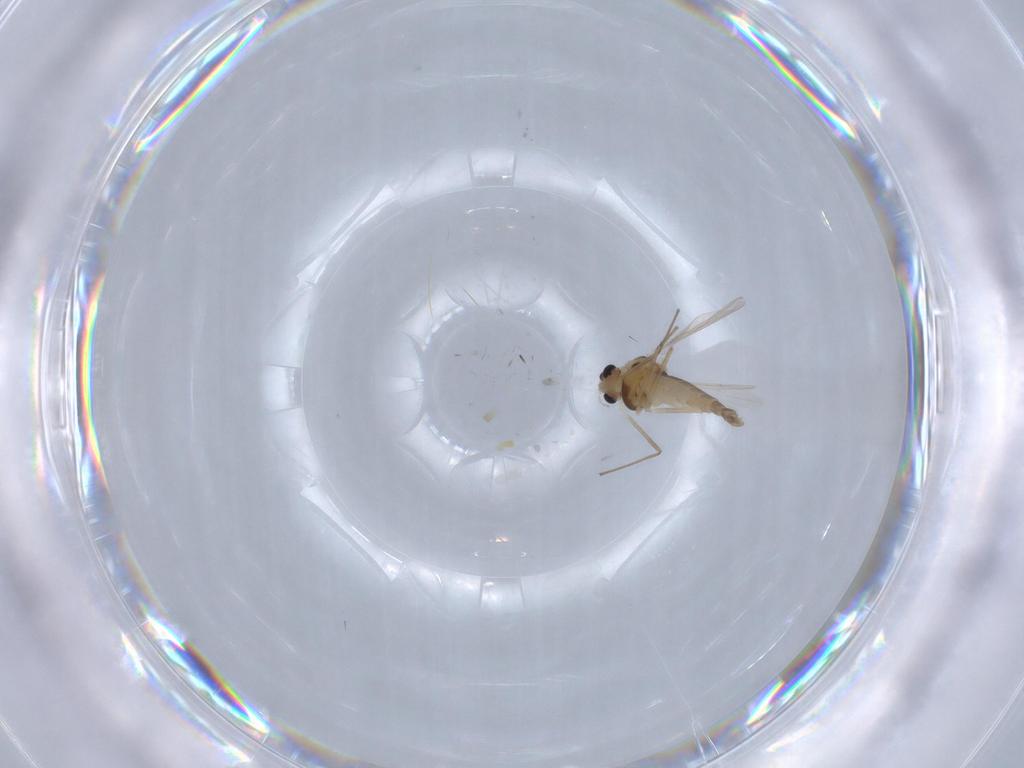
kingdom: Animalia
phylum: Arthropoda
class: Insecta
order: Diptera
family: Chironomidae
